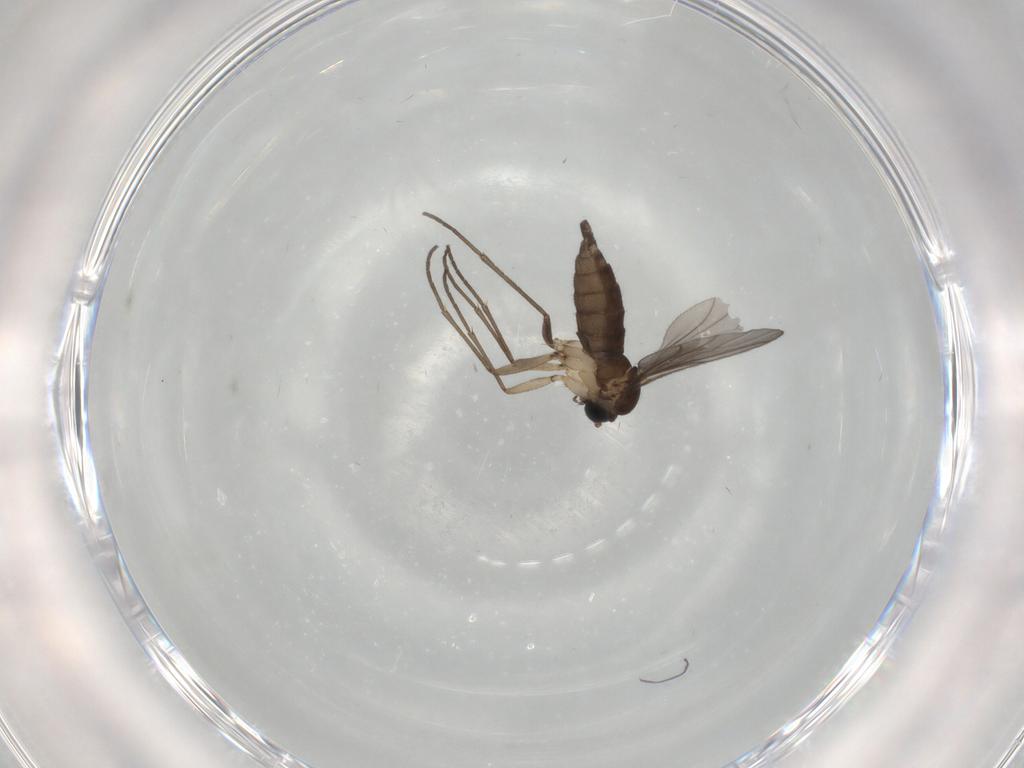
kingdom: Animalia
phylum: Arthropoda
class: Insecta
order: Diptera
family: Sciaridae
